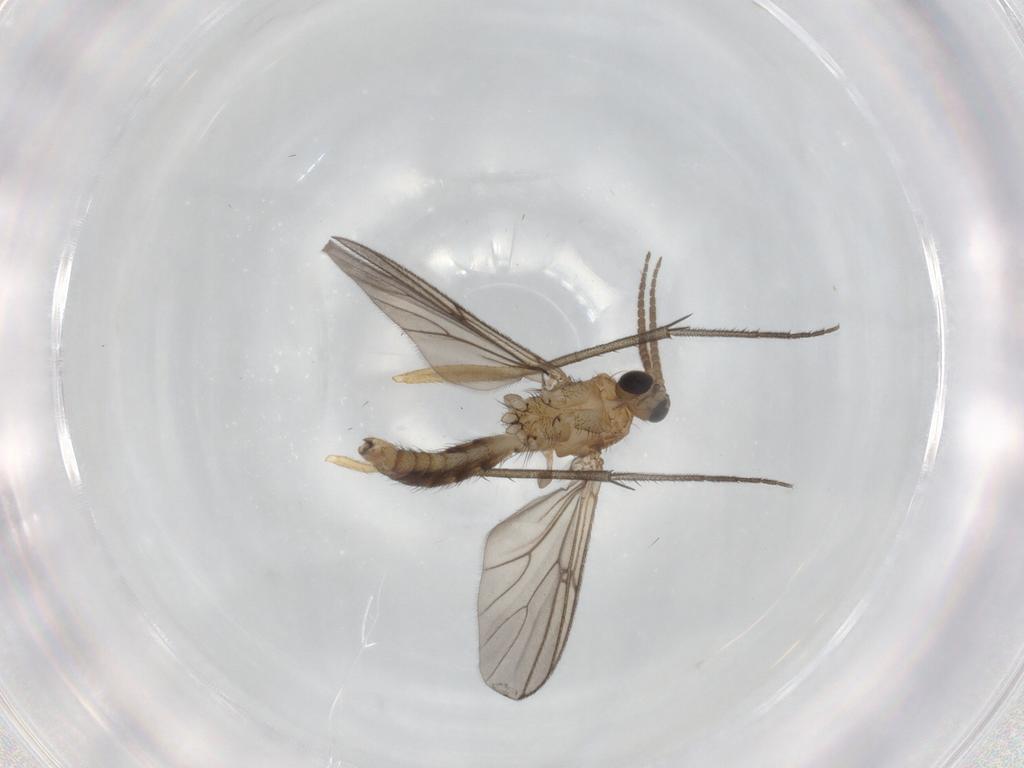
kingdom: Animalia
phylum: Arthropoda
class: Insecta
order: Diptera
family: Mycetophilidae
